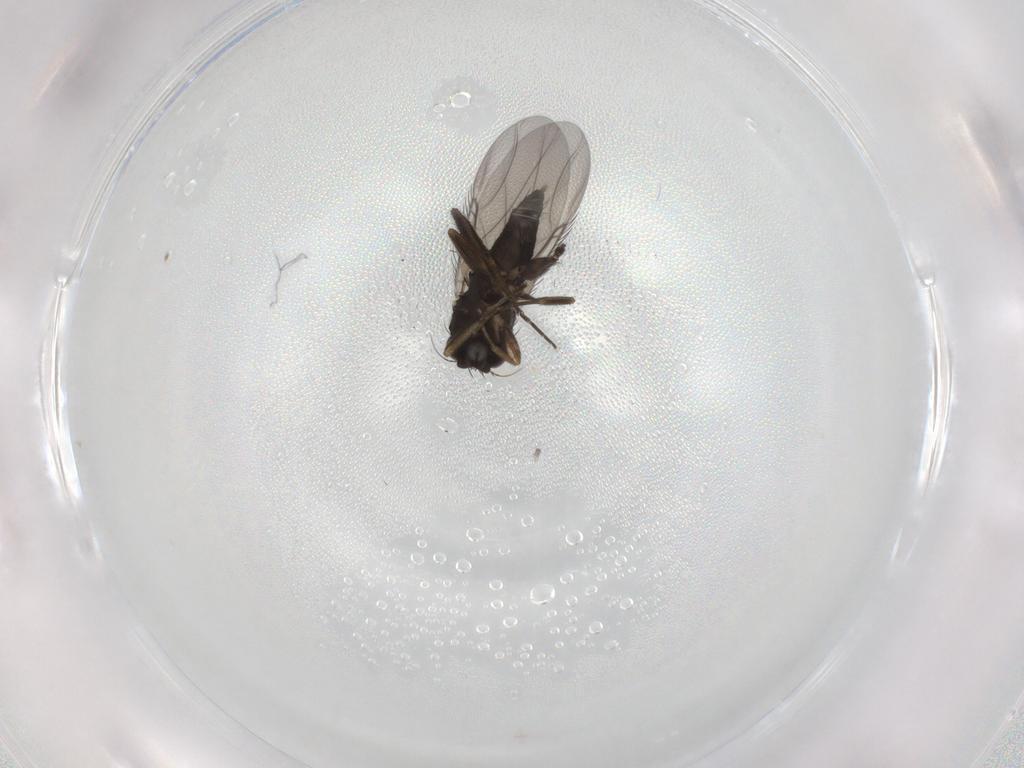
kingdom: Animalia
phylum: Arthropoda
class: Insecta
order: Diptera
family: Phoridae
